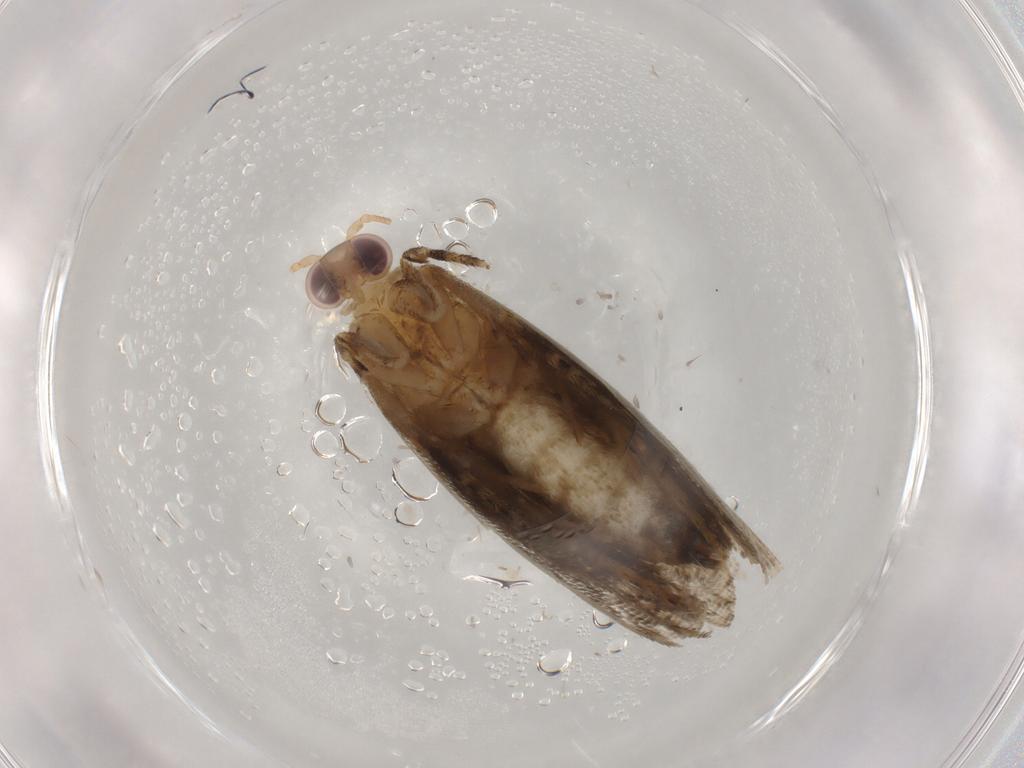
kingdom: Animalia
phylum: Arthropoda
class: Insecta
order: Lepidoptera
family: Tortricidae
